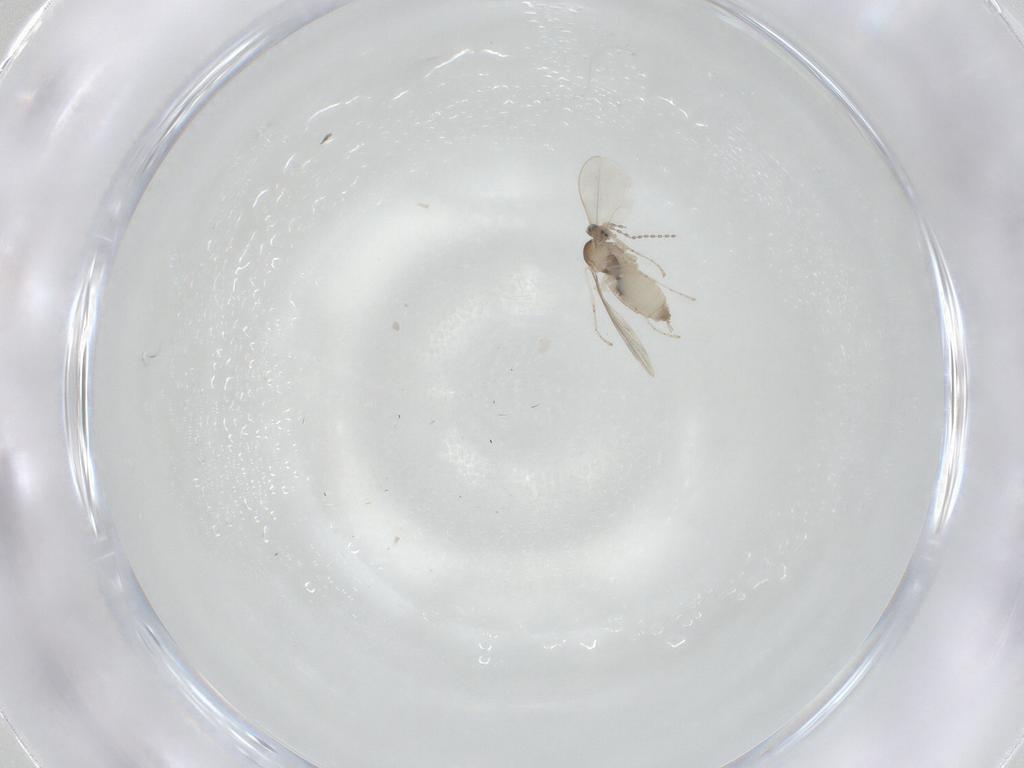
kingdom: Animalia
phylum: Arthropoda
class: Insecta
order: Diptera
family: Cecidomyiidae
